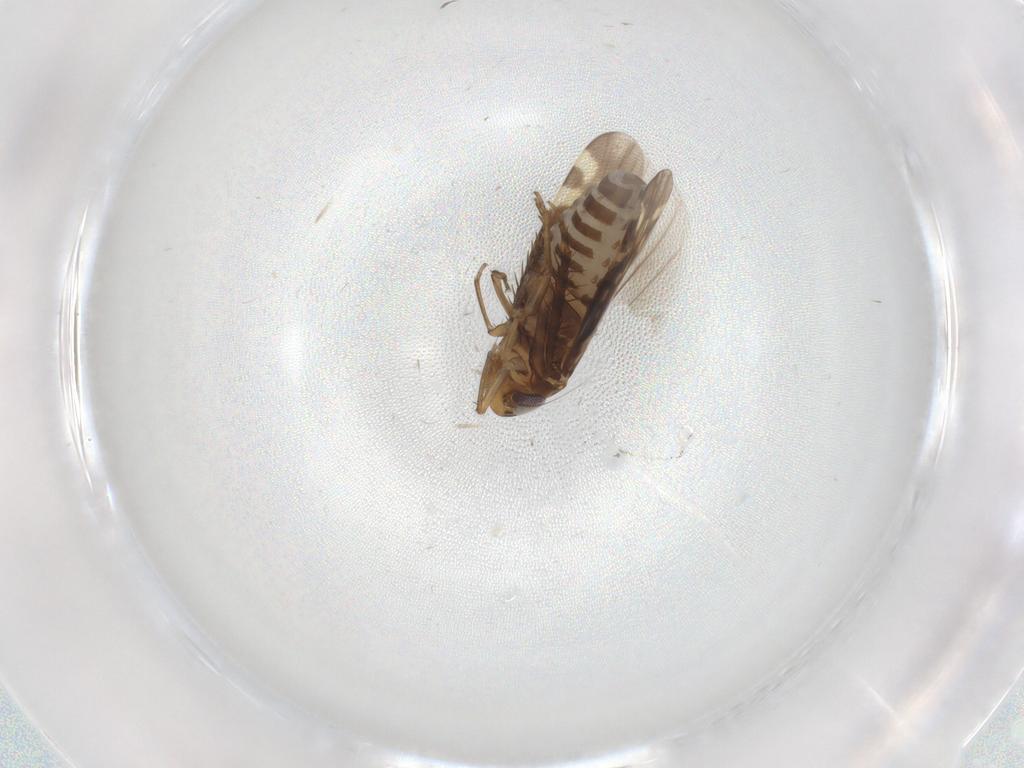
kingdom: Animalia
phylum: Arthropoda
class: Insecta
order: Hemiptera
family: Cicadellidae
